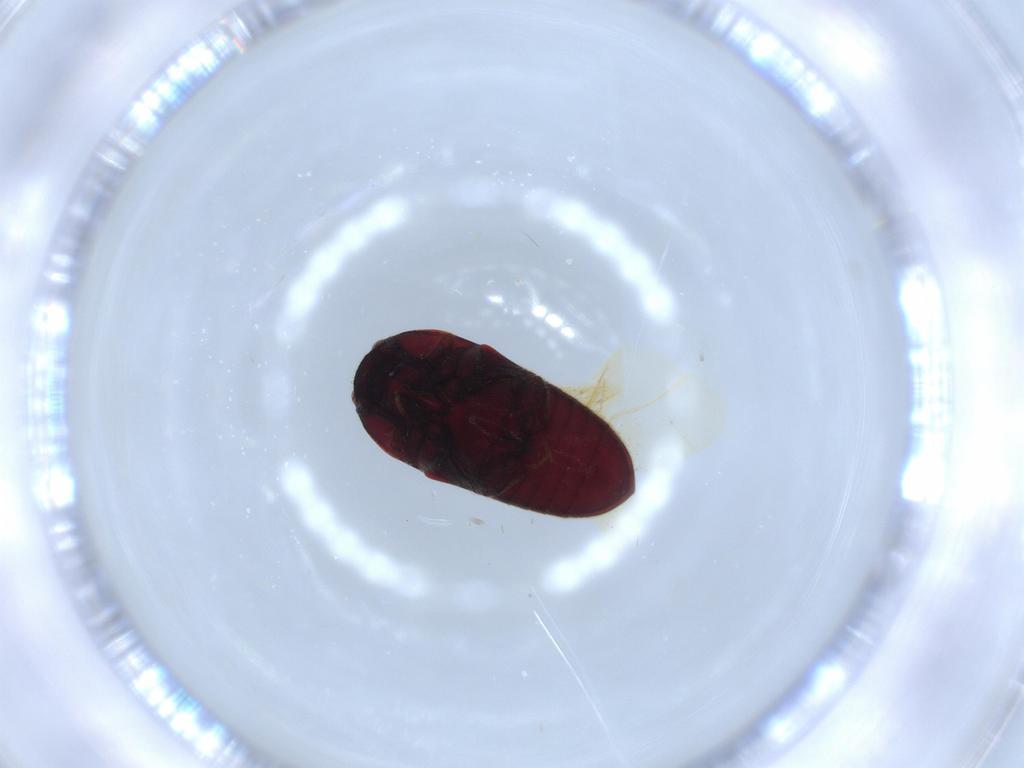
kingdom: Animalia
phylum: Arthropoda
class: Insecta
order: Coleoptera
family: Throscidae
